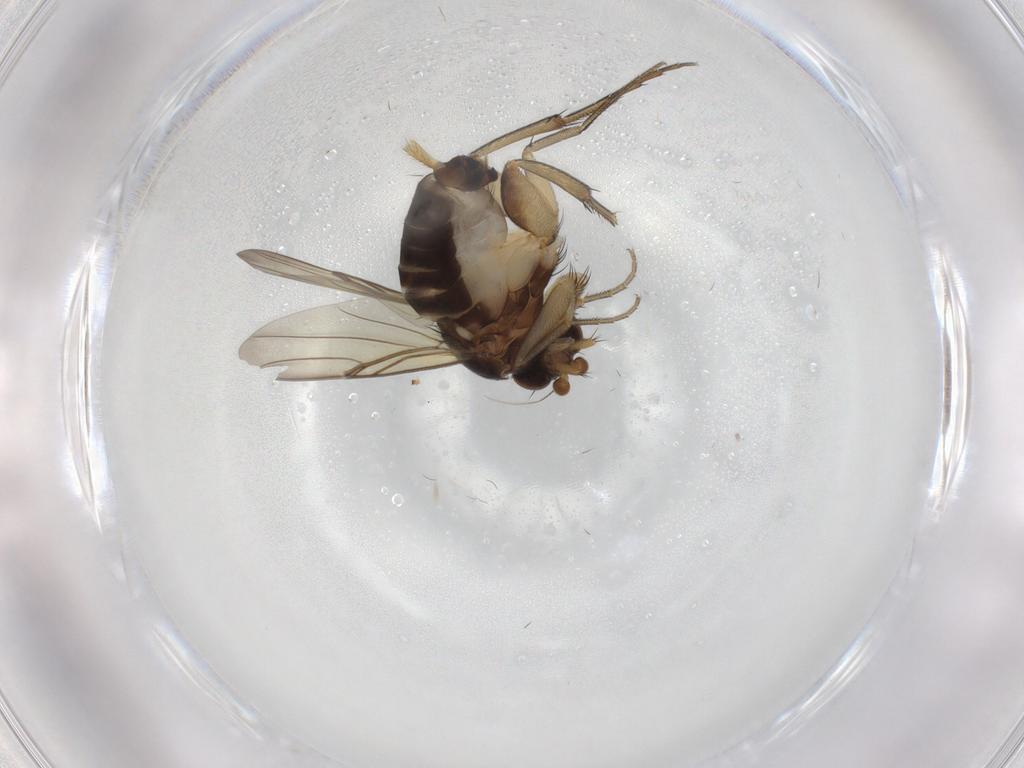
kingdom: Animalia
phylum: Arthropoda
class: Insecta
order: Diptera
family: Phoridae
